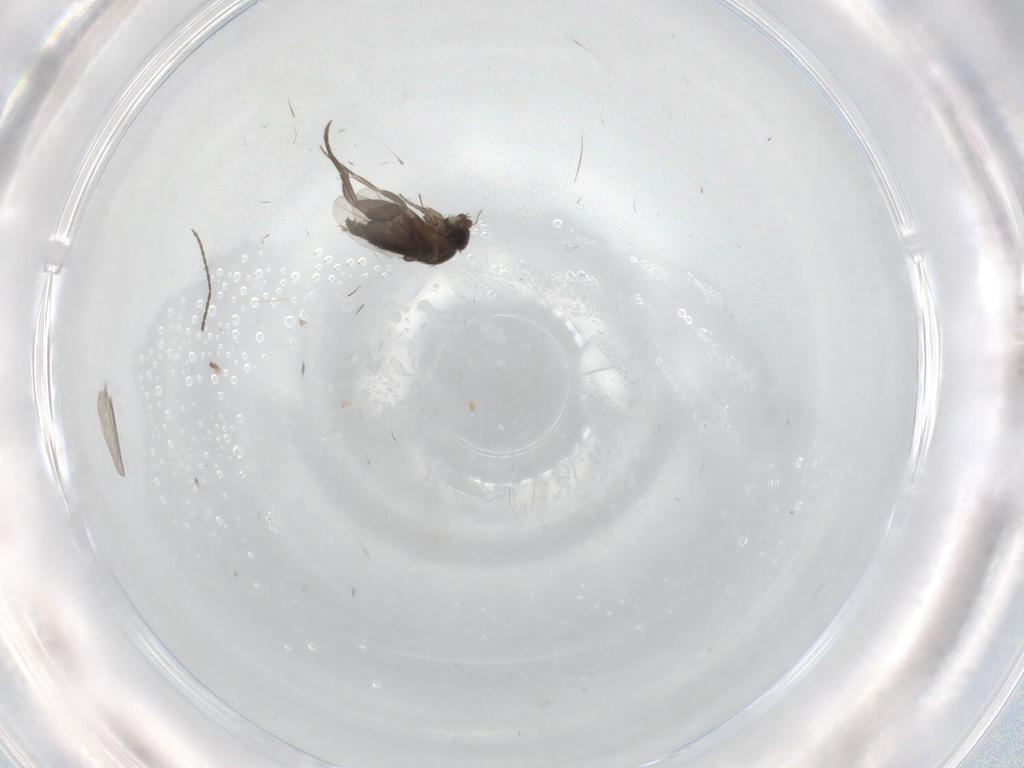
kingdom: Animalia
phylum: Arthropoda
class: Insecta
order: Diptera
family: Phoridae
